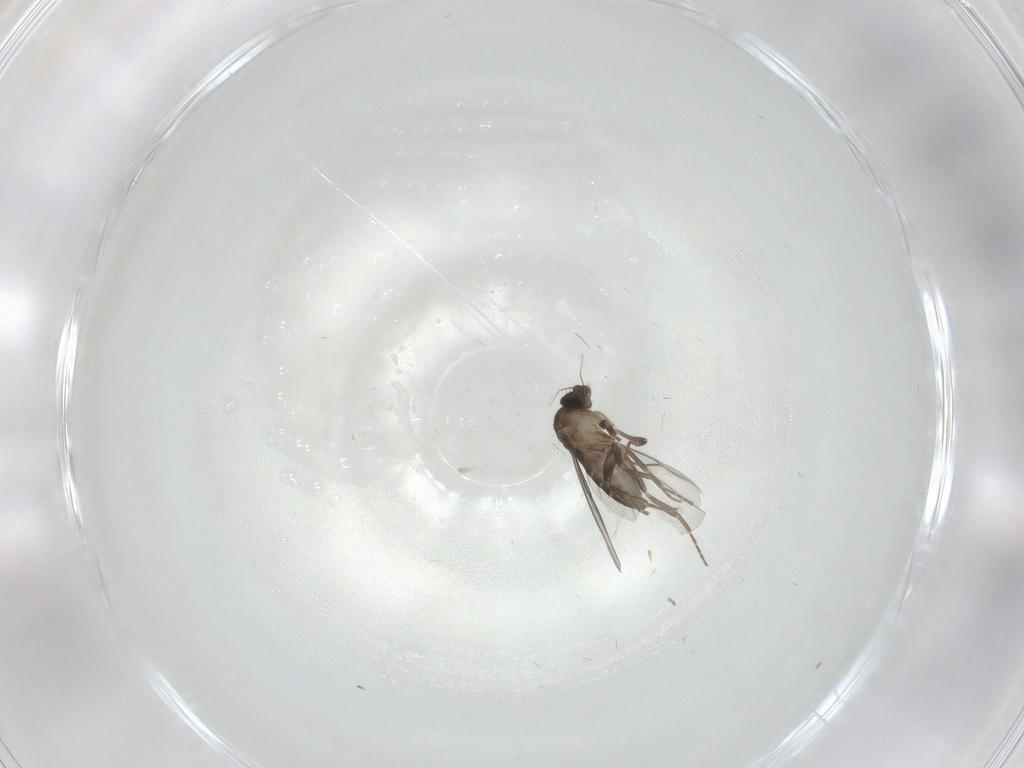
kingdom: Animalia
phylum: Arthropoda
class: Insecta
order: Diptera
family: Phoridae
